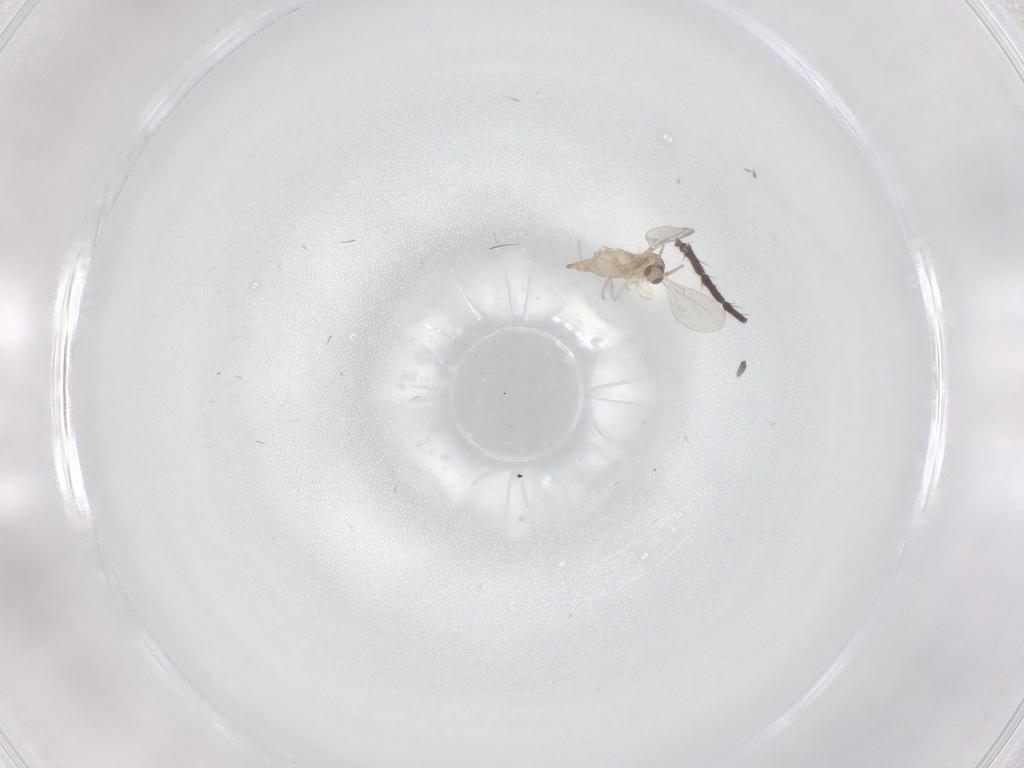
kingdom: Animalia
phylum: Arthropoda
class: Insecta
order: Diptera
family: Cecidomyiidae
